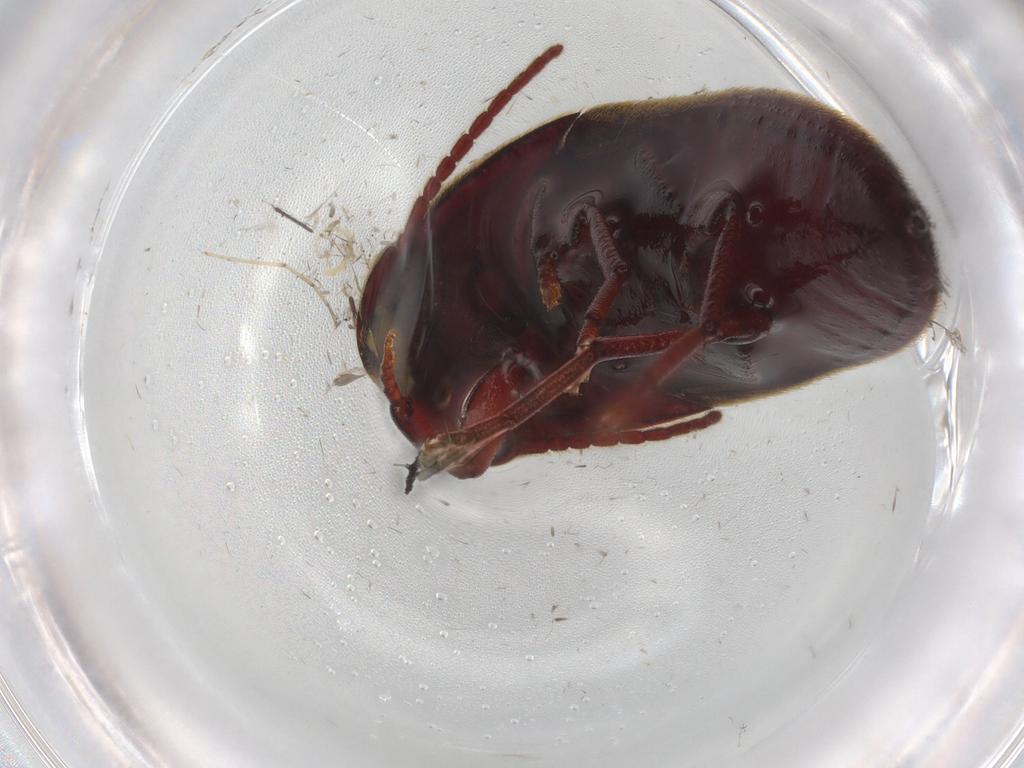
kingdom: Animalia
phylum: Arthropoda
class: Insecta
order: Coleoptera
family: Eucnemidae
